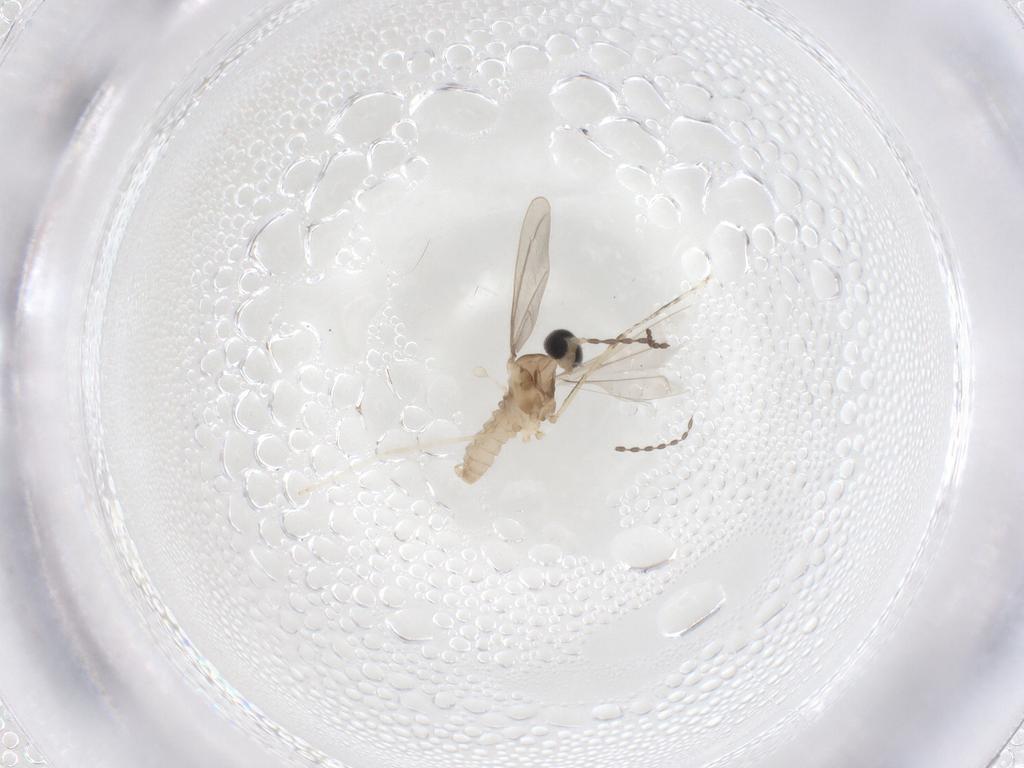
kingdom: Animalia
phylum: Arthropoda
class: Insecta
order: Diptera
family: Cecidomyiidae
